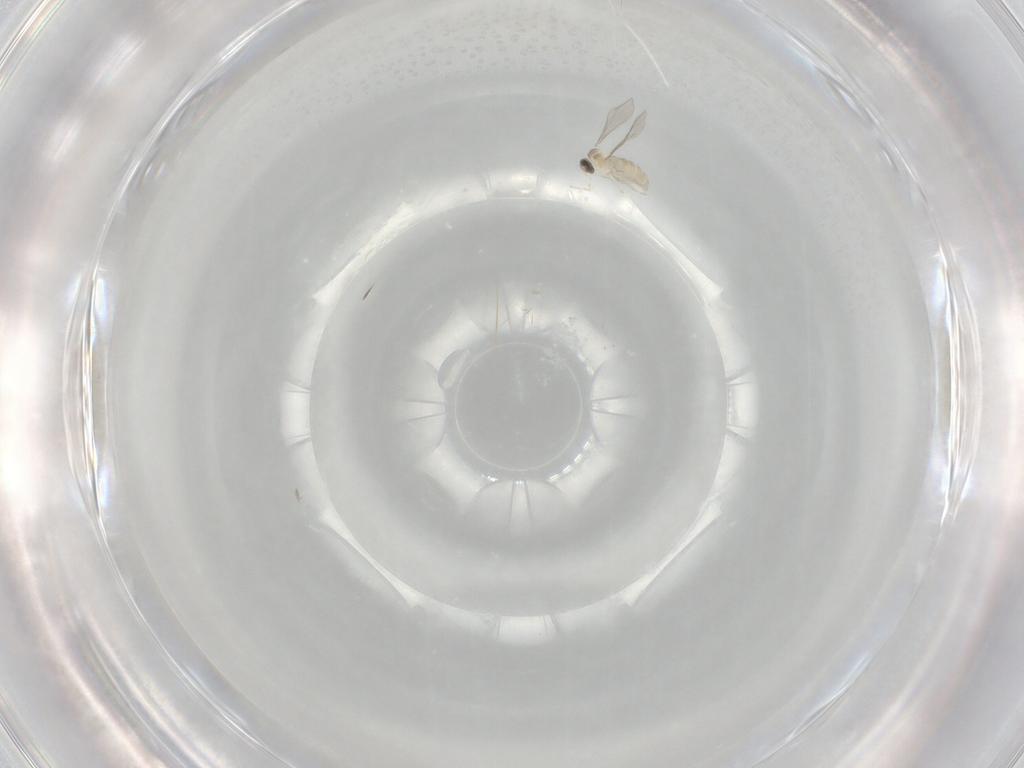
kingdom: Animalia
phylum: Arthropoda
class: Insecta
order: Diptera
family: Cecidomyiidae
